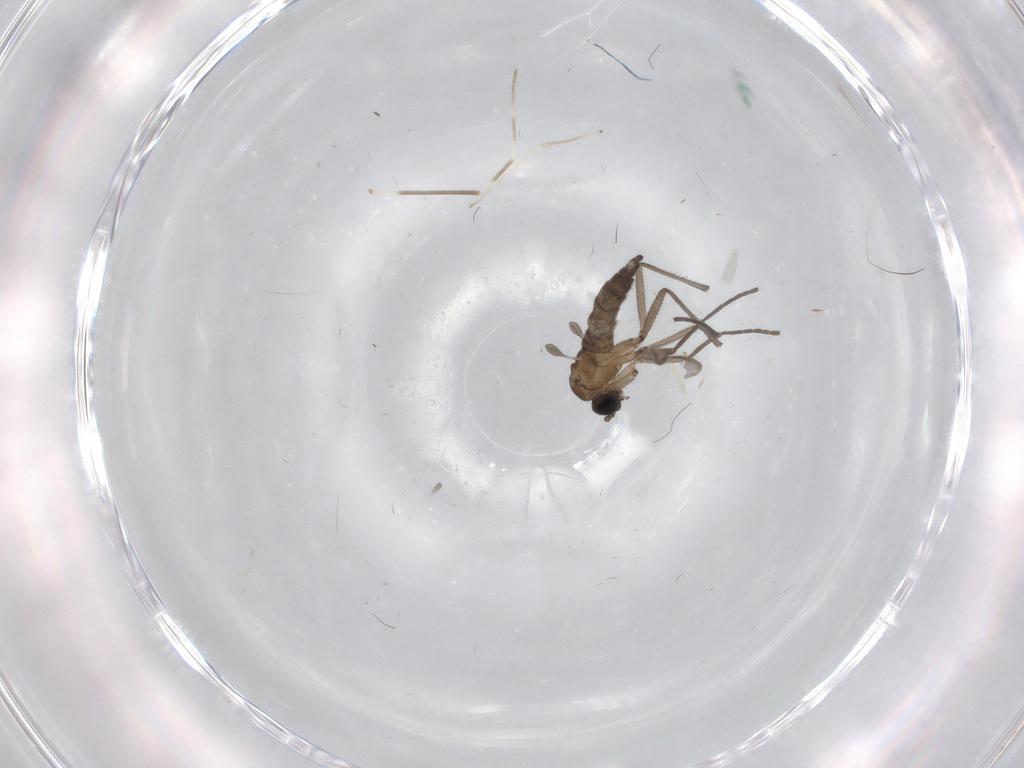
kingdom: Animalia
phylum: Arthropoda
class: Insecta
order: Diptera
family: Chironomidae
